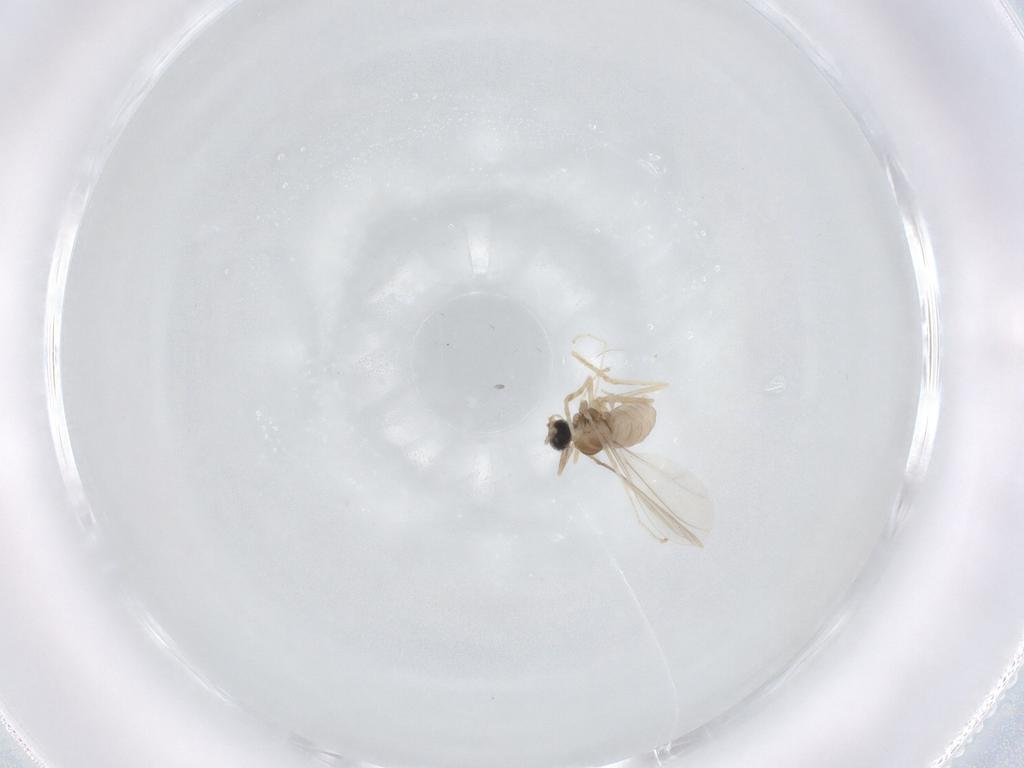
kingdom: Animalia
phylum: Arthropoda
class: Insecta
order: Diptera
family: Cecidomyiidae
